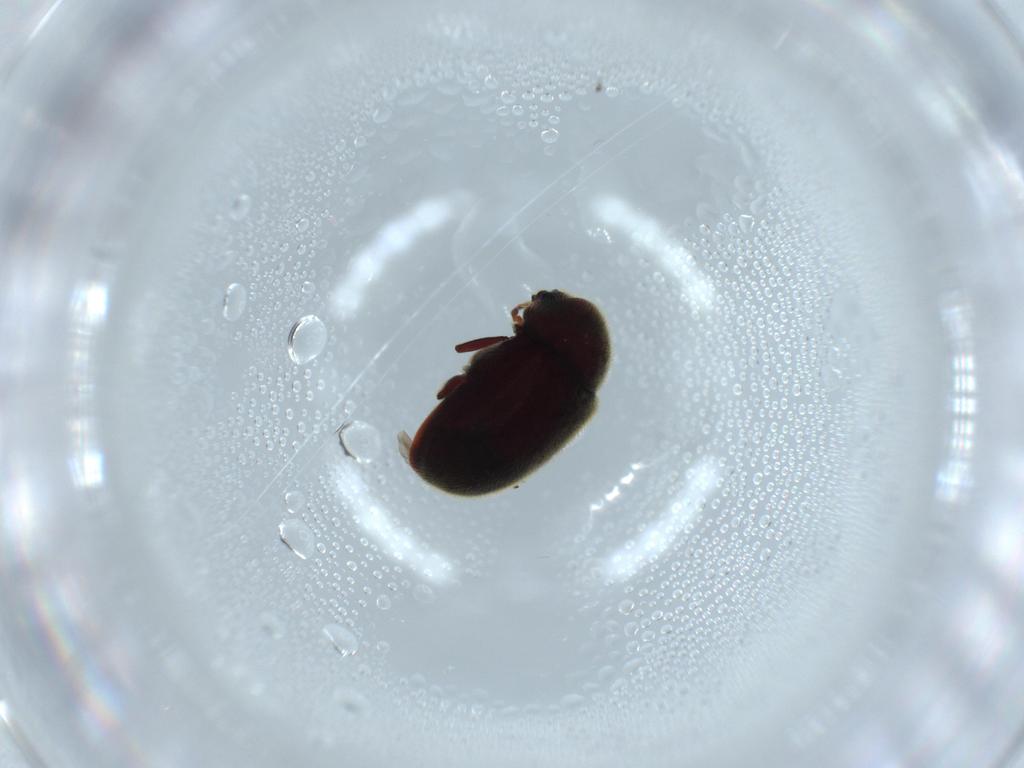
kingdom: Animalia
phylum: Arthropoda
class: Insecta
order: Coleoptera
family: Ptinidae
